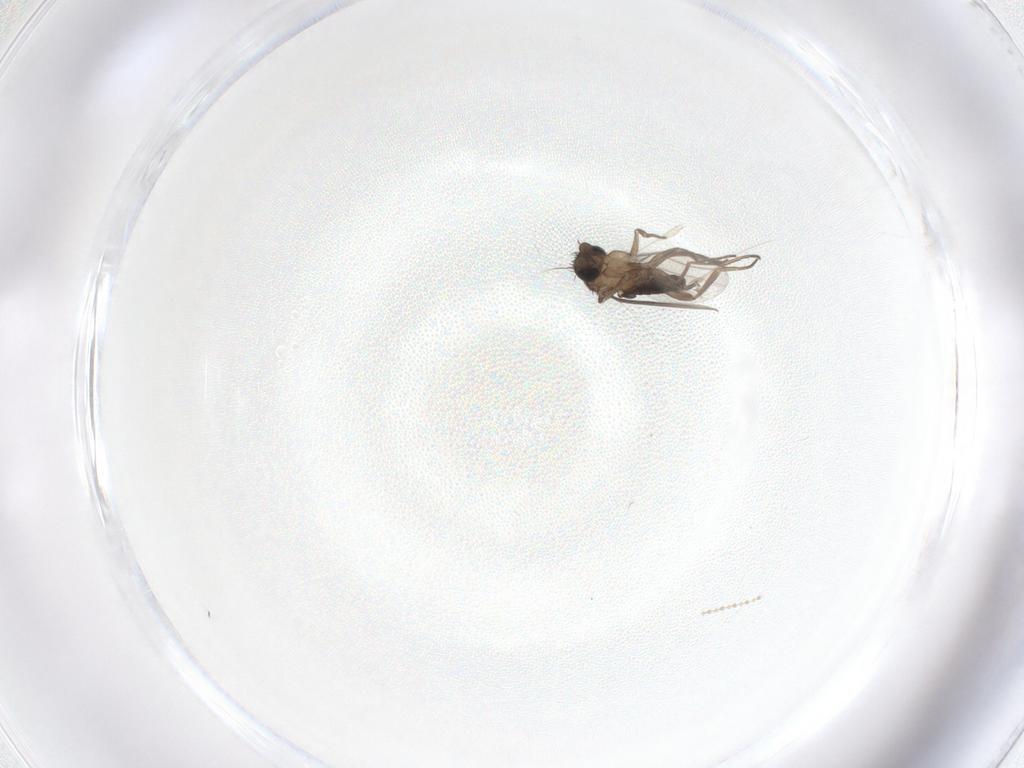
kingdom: Animalia
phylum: Arthropoda
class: Insecta
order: Diptera
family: Phoridae
